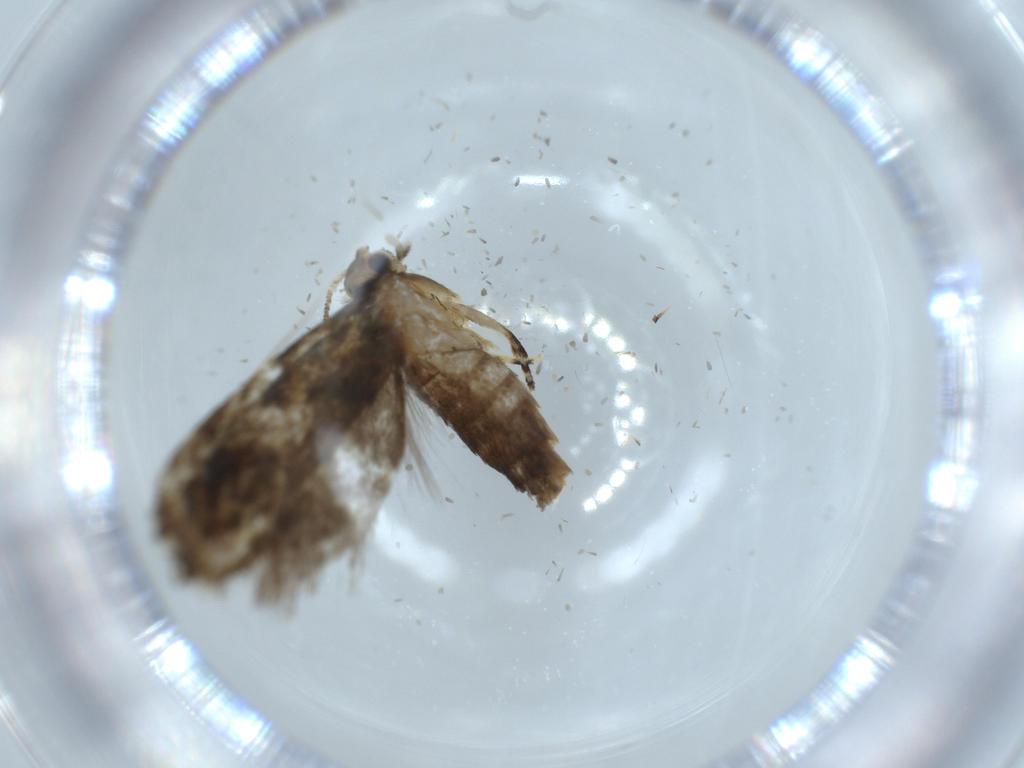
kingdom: Animalia
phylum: Arthropoda
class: Insecta
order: Lepidoptera
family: Tineidae
